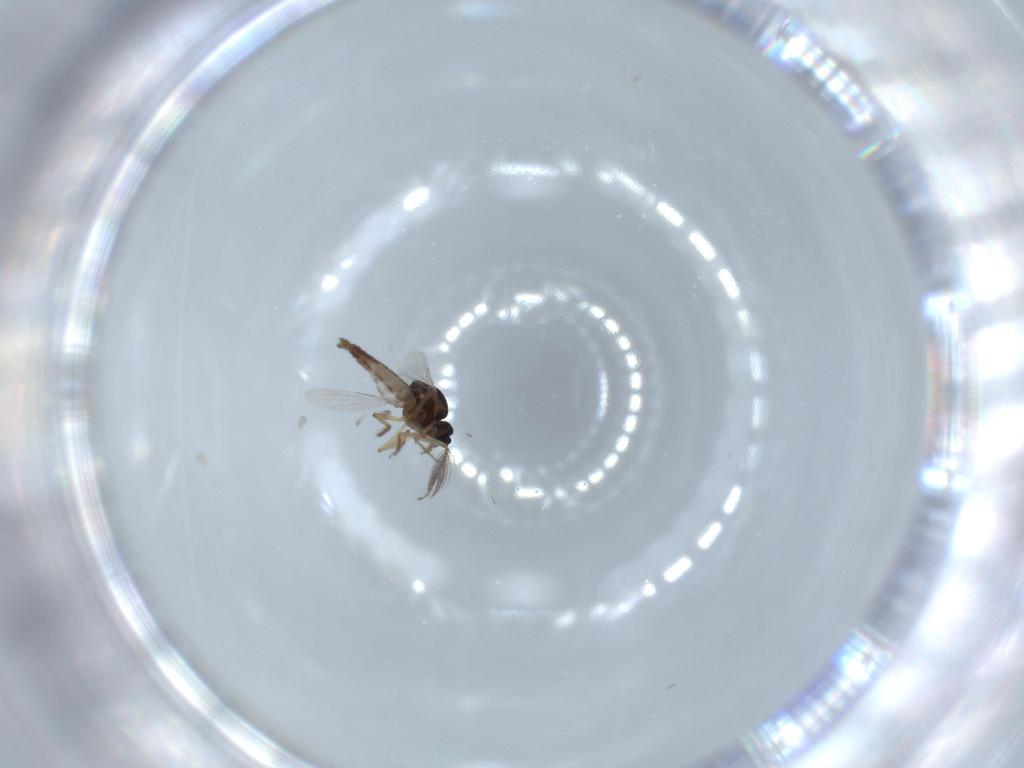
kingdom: Animalia
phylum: Arthropoda
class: Insecta
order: Diptera
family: Ceratopogonidae
